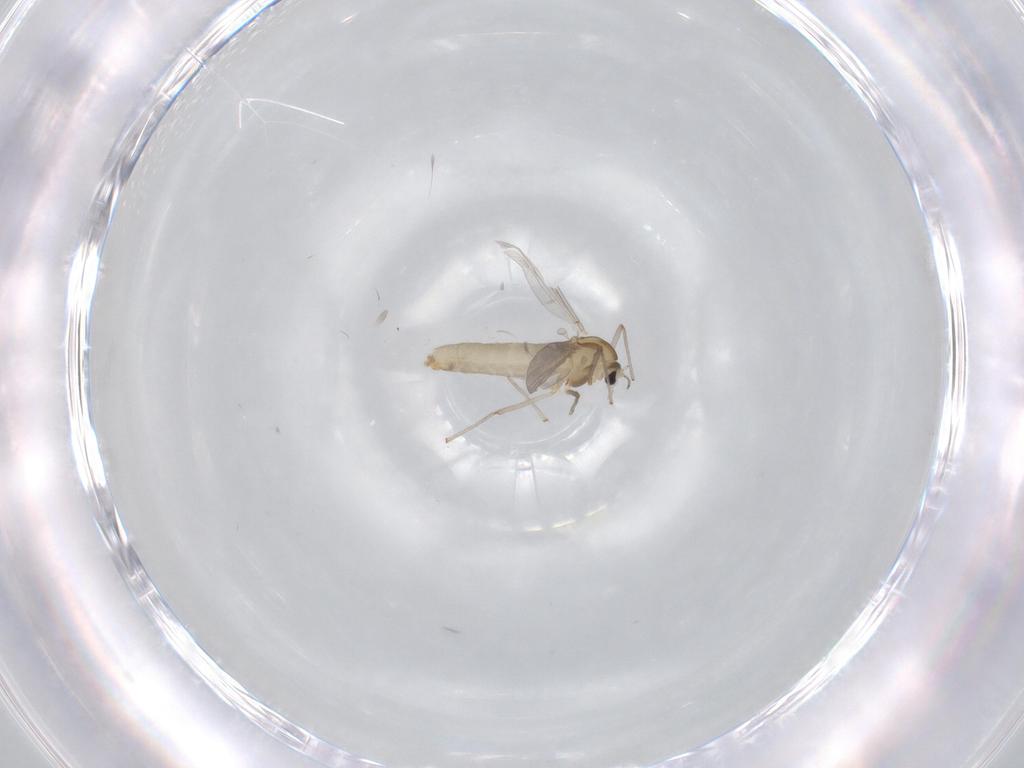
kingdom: Animalia
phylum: Arthropoda
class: Insecta
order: Diptera
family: Chironomidae
